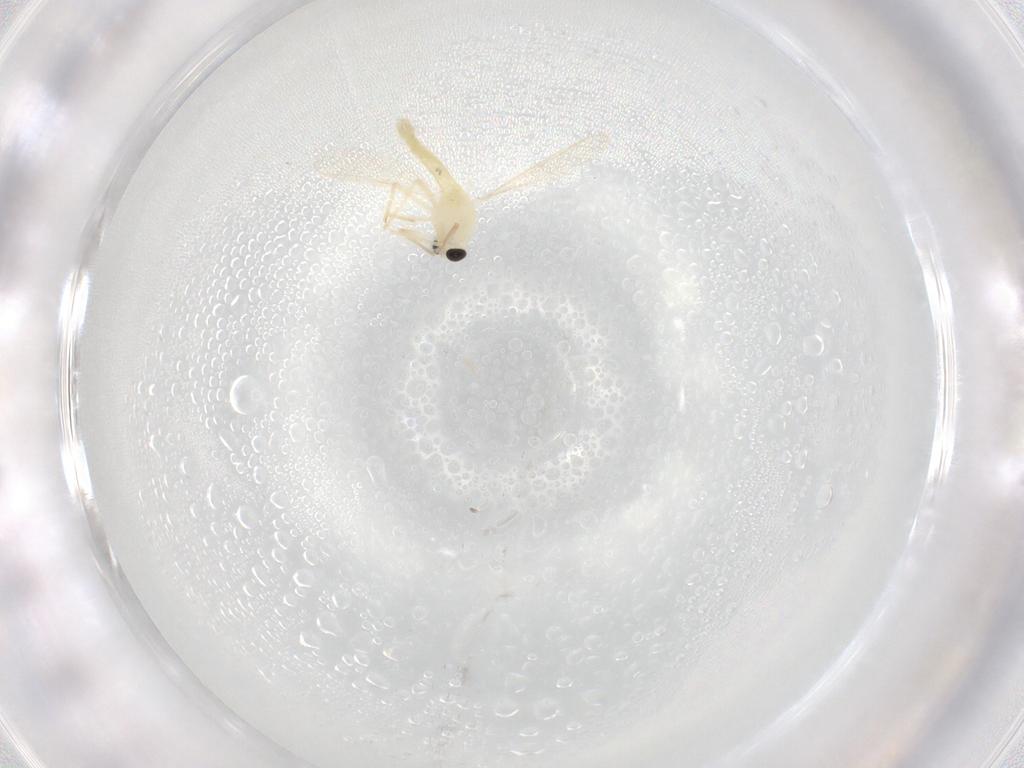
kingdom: Animalia
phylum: Arthropoda
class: Insecta
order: Diptera
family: Chironomidae
